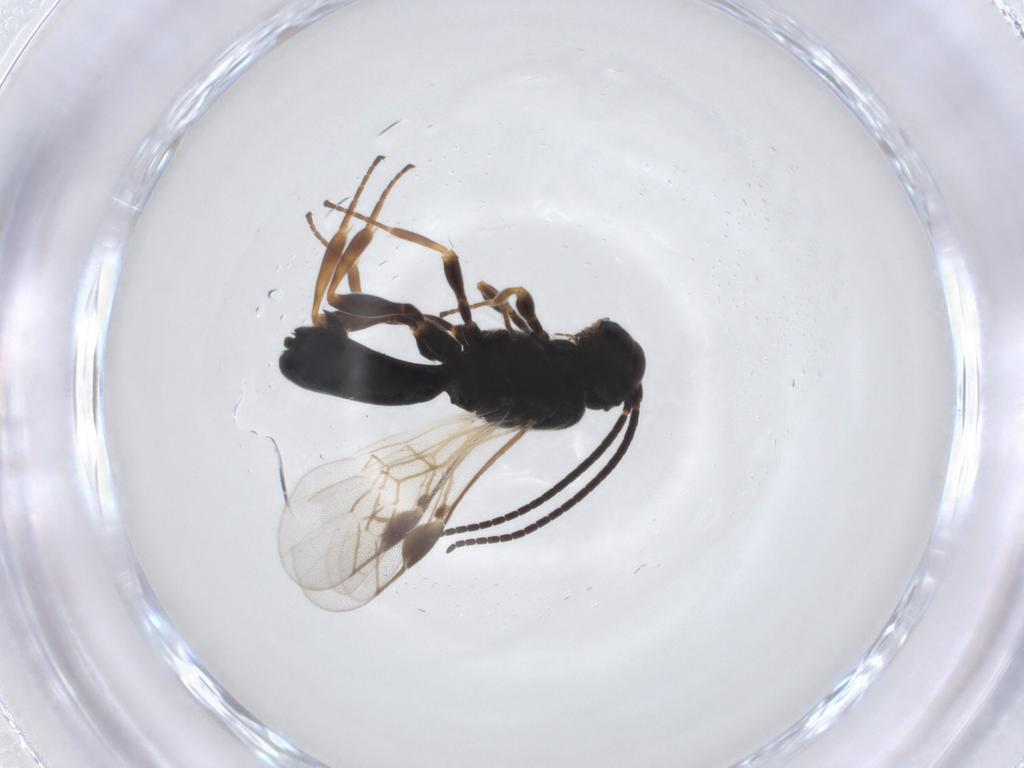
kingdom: Animalia
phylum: Arthropoda
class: Insecta
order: Hymenoptera
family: Braconidae
